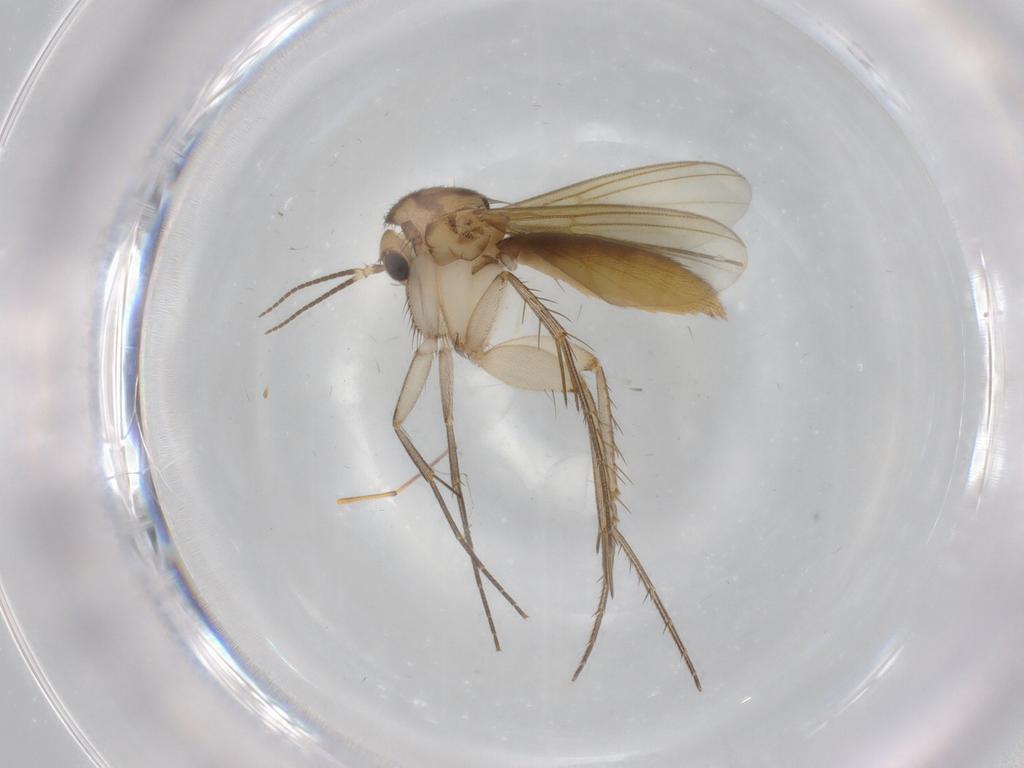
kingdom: Animalia
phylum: Arthropoda
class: Insecta
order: Diptera
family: Mycetophilidae
